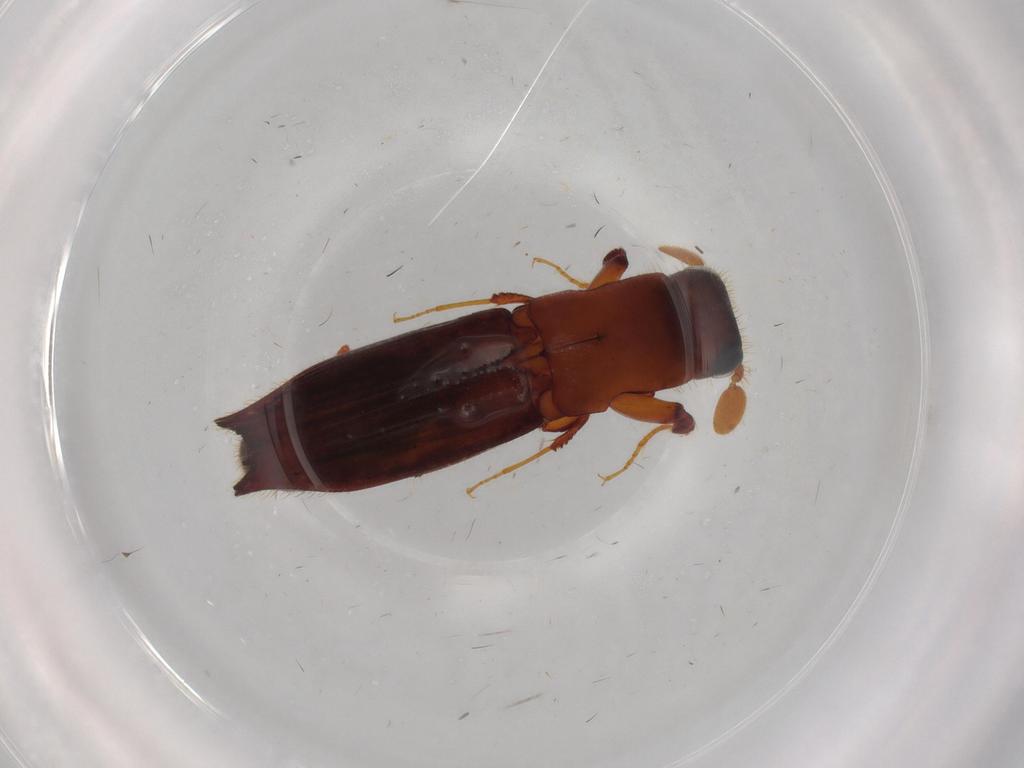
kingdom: Animalia
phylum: Arthropoda
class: Insecta
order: Coleoptera
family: Curculionidae
